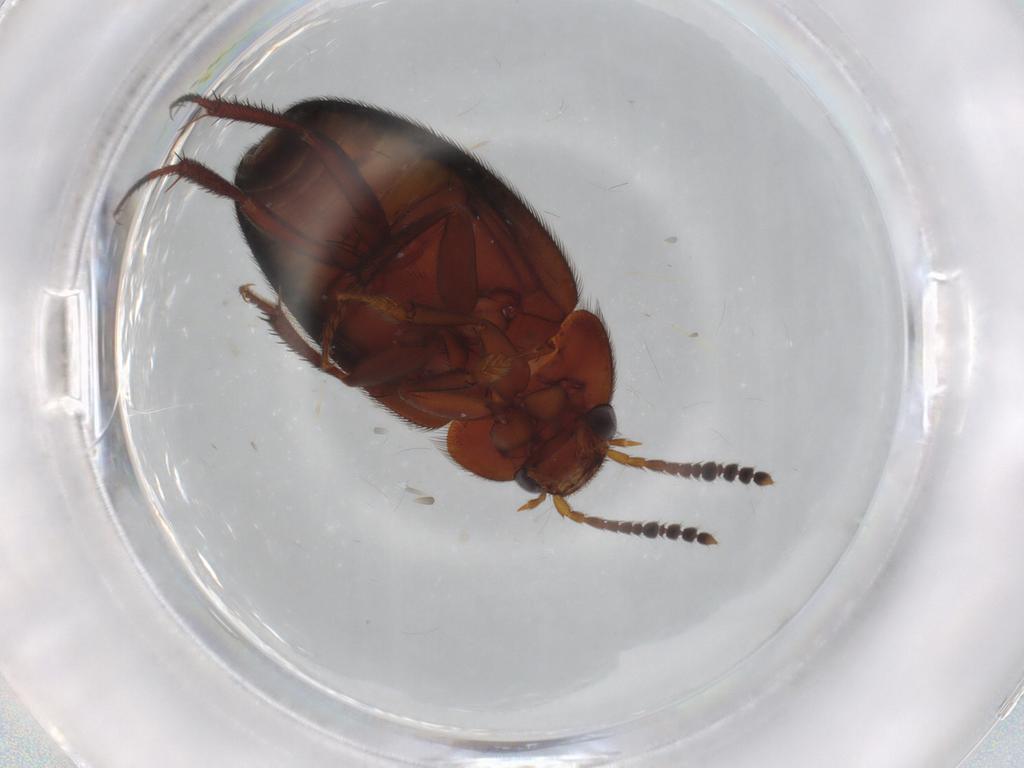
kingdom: Animalia
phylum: Arthropoda
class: Insecta
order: Coleoptera
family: Leiodidae
